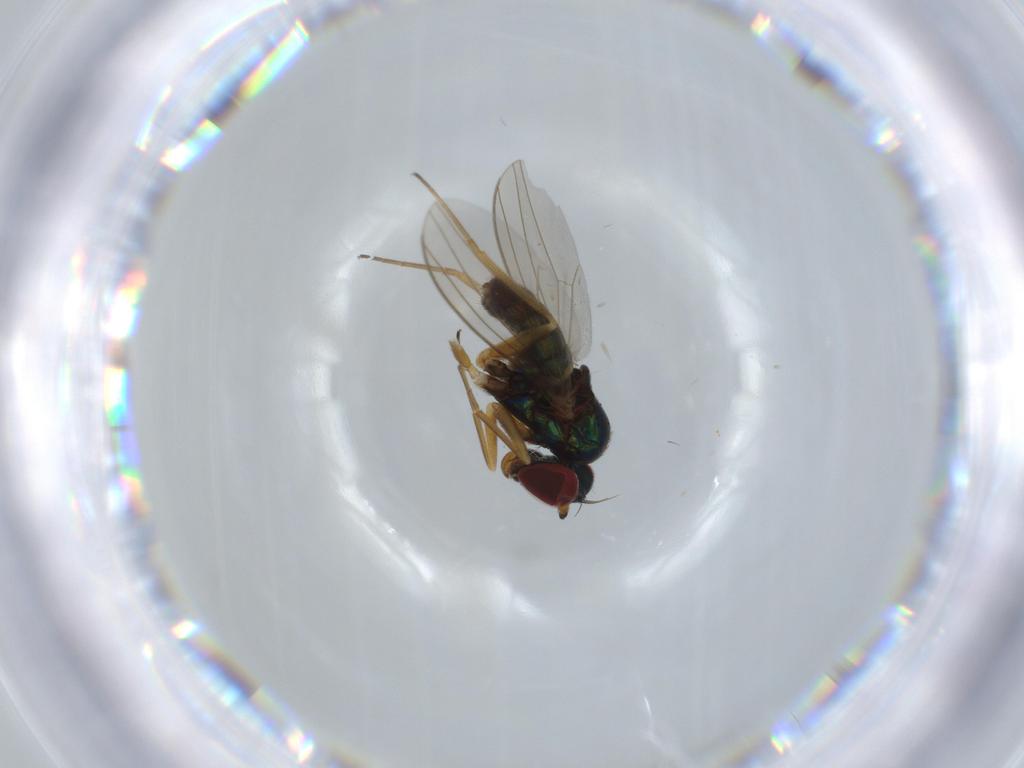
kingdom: Animalia
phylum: Arthropoda
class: Insecta
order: Diptera
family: Dolichopodidae
